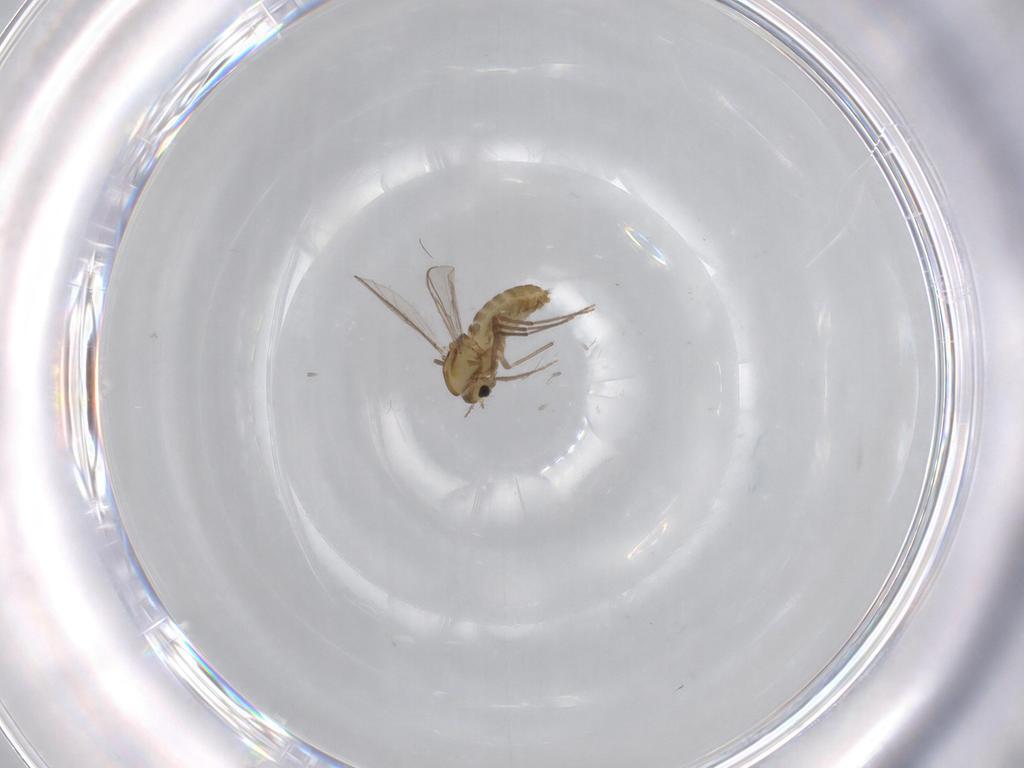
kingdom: Animalia
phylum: Arthropoda
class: Insecta
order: Diptera
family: Chironomidae
